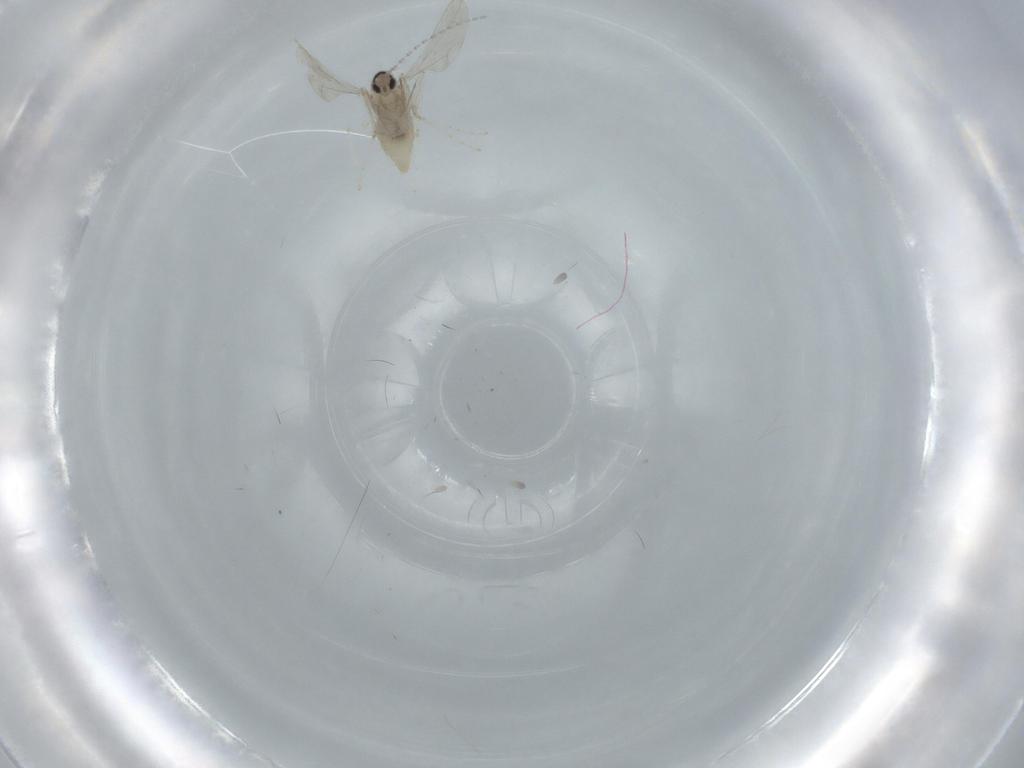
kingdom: Animalia
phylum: Arthropoda
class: Insecta
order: Diptera
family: Cecidomyiidae
